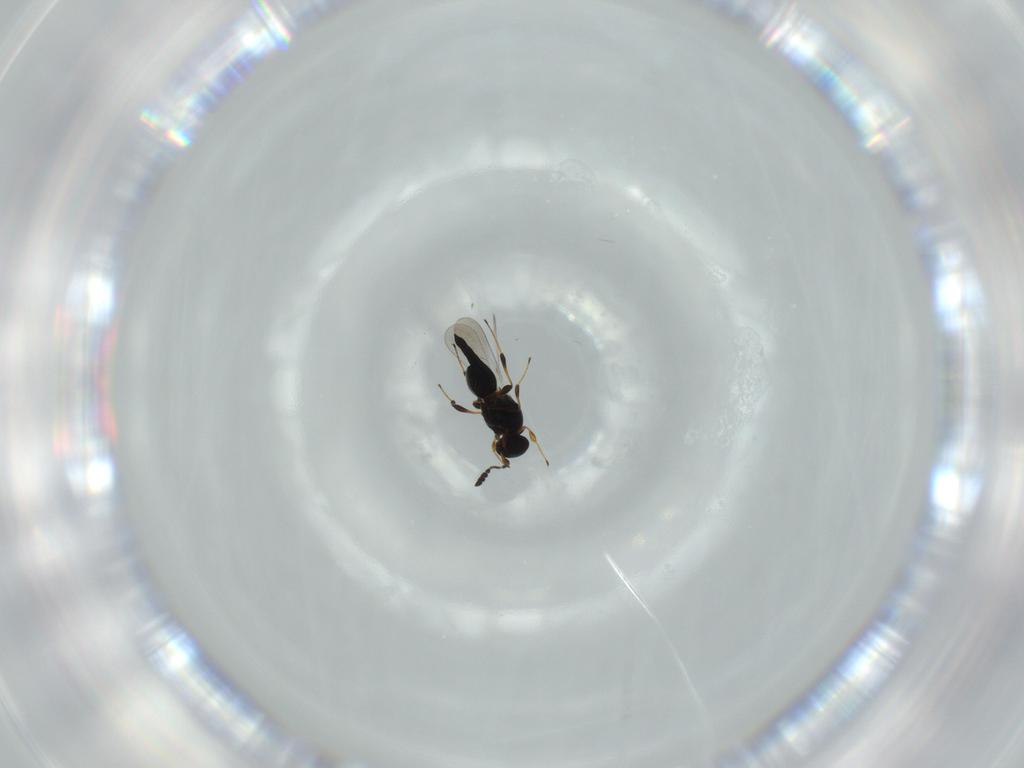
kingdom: Animalia
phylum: Arthropoda
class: Insecta
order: Hymenoptera
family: Platygastridae
